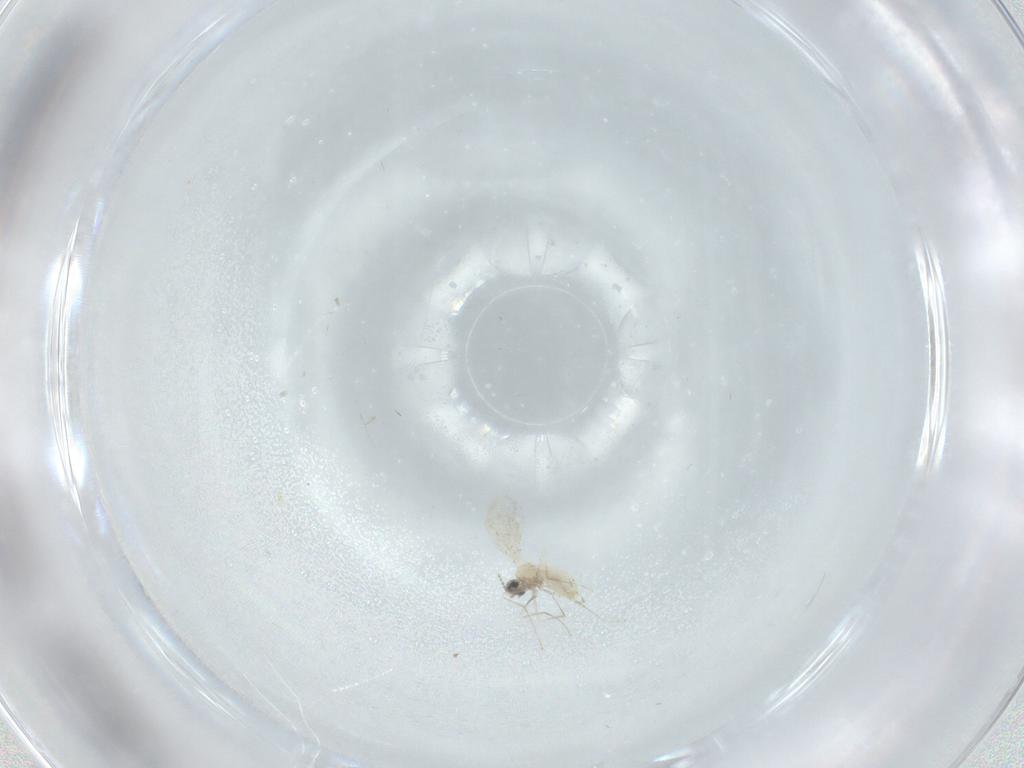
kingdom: Animalia
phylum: Arthropoda
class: Insecta
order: Diptera
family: Cecidomyiidae
